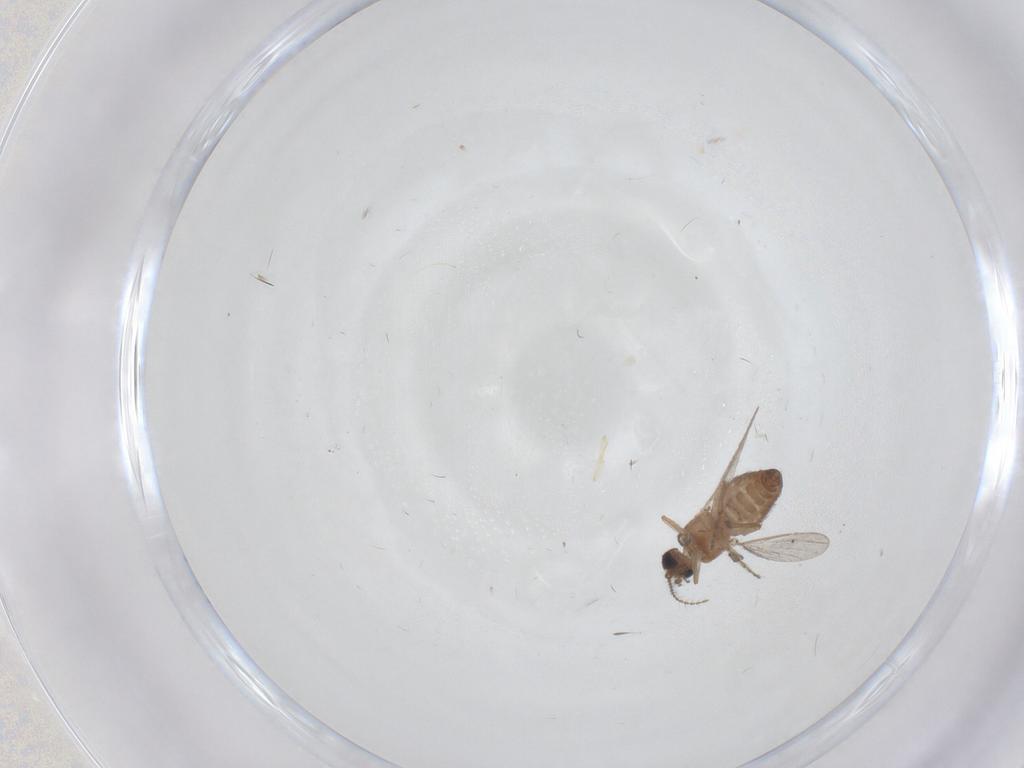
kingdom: Animalia
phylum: Arthropoda
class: Insecta
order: Diptera
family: Ceratopogonidae
